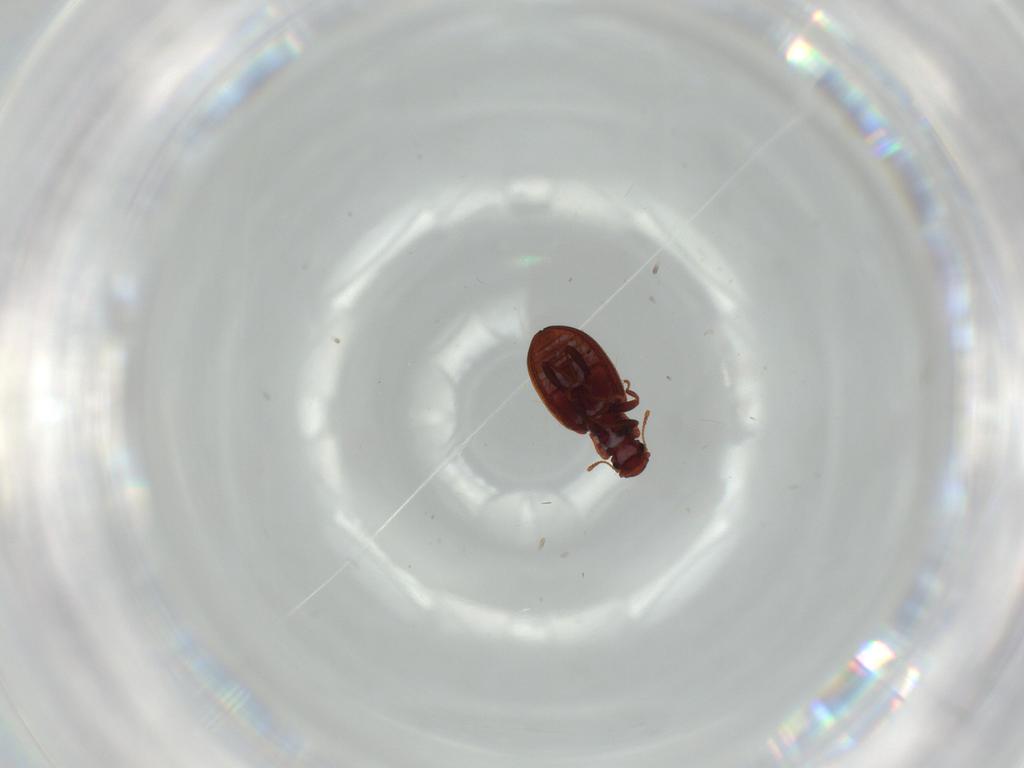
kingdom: Animalia
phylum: Arthropoda
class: Insecta
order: Coleoptera
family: Latridiidae
